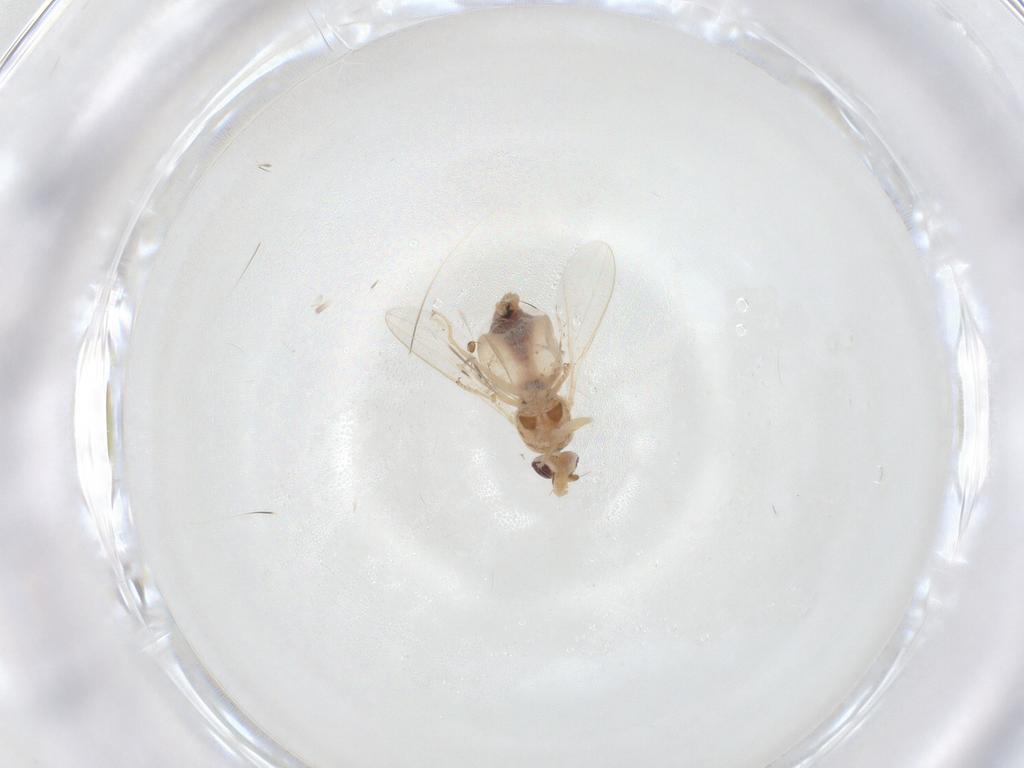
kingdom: Animalia
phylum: Arthropoda
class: Insecta
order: Diptera
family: Chloropidae
